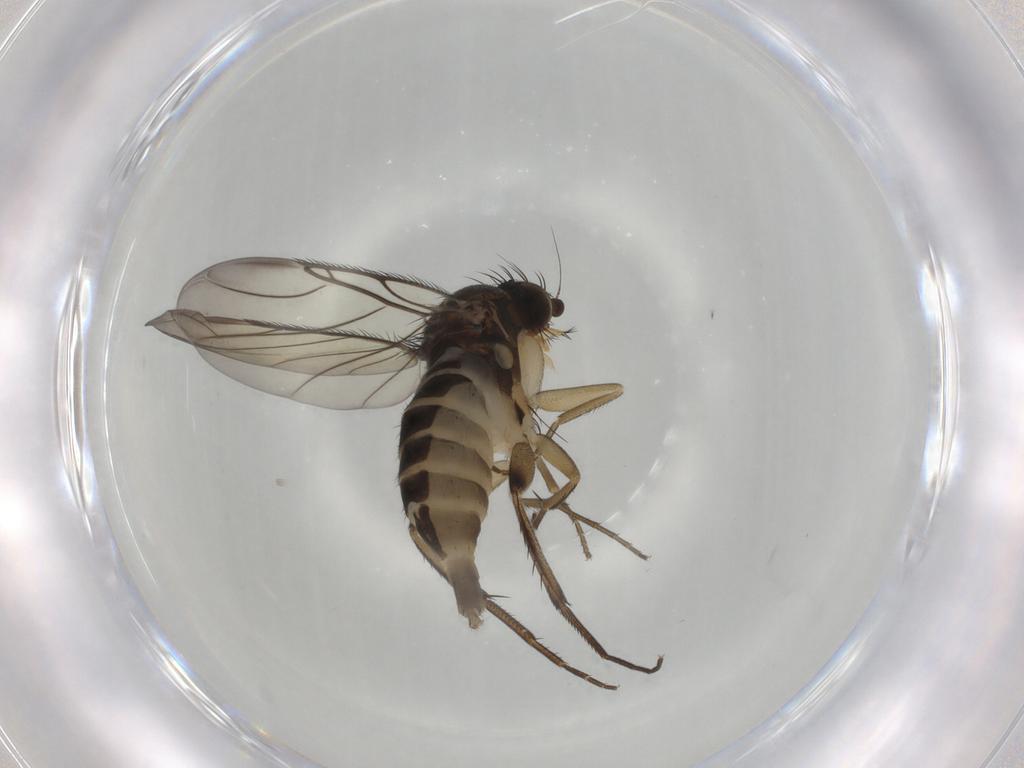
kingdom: Animalia
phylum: Arthropoda
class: Insecta
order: Diptera
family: Phoridae
